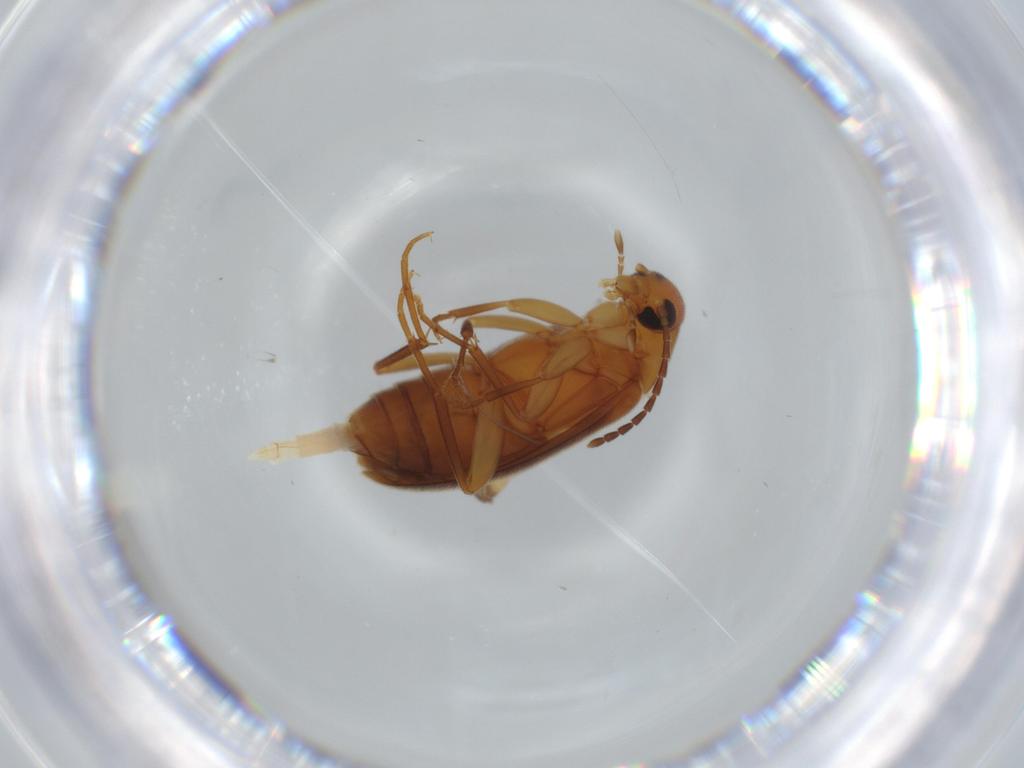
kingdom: Animalia
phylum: Arthropoda
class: Insecta
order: Coleoptera
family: Scraptiidae
